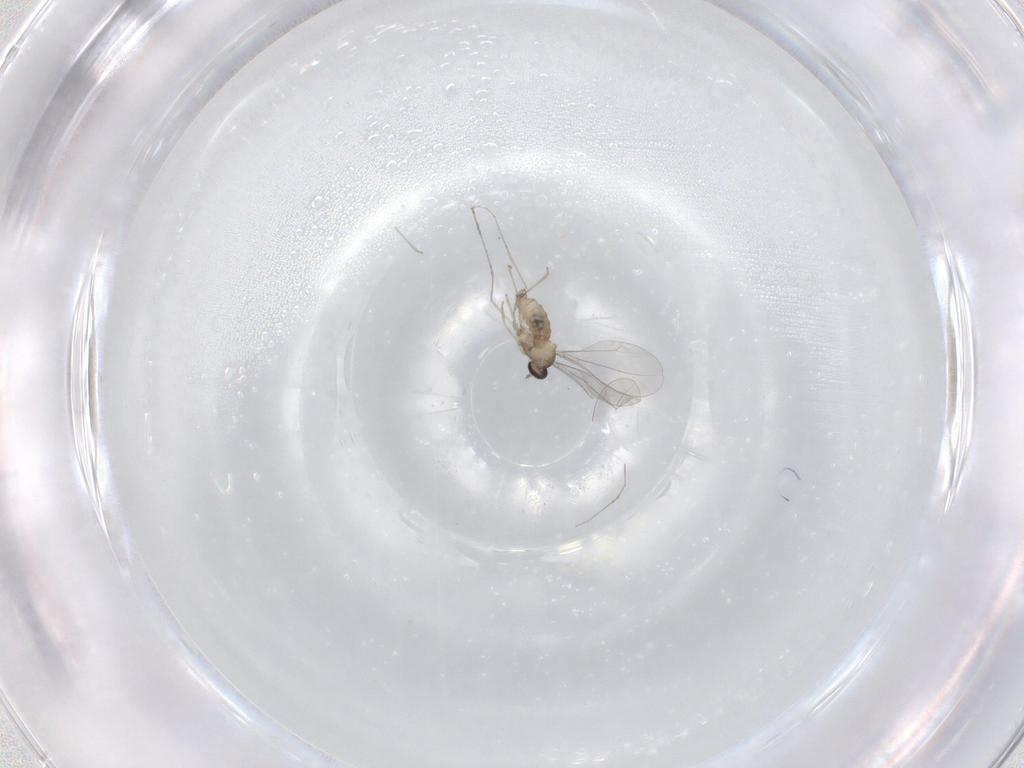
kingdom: Animalia
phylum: Arthropoda
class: Insecta
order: Diptera
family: Cecidomyiidae
